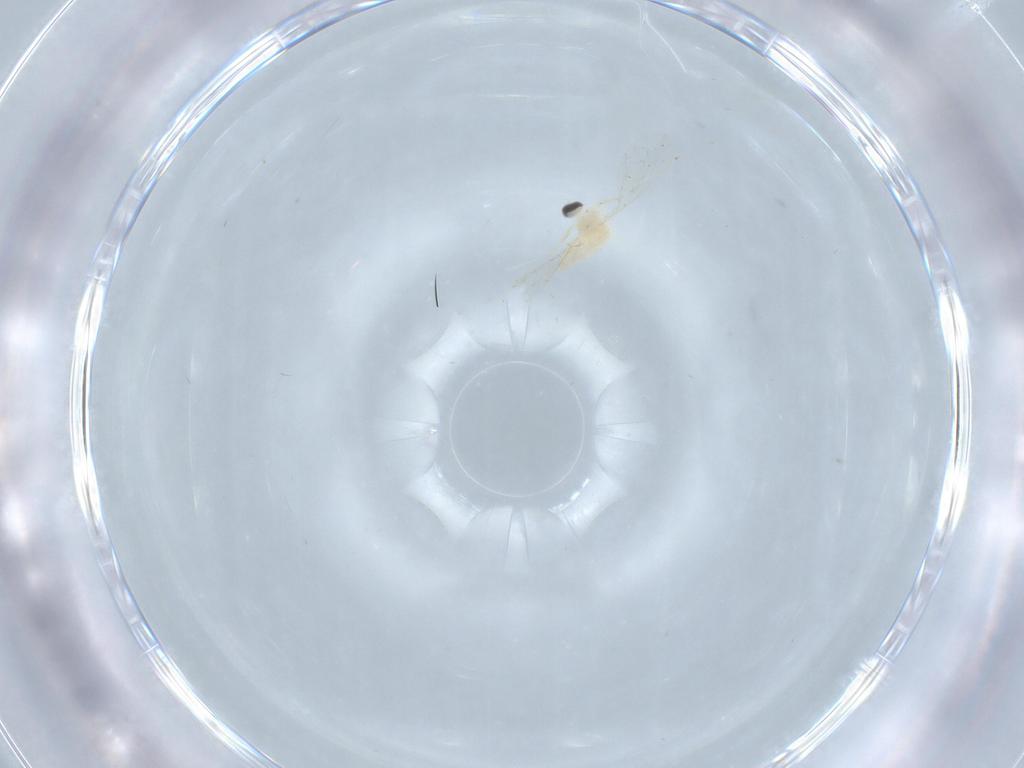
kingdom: Animalia
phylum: Arthropoda
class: Insecta
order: Diptera
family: Cecidomyiidae
